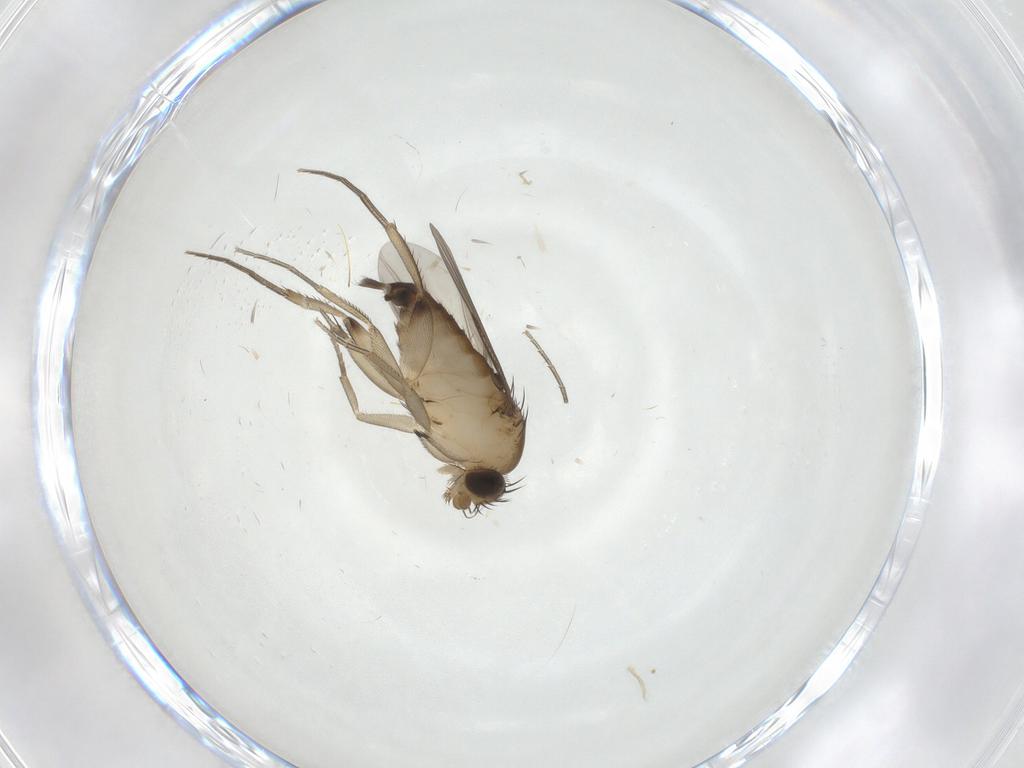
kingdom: Animalia
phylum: Arthropoda
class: Insecta
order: Diptera
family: Phoridae
